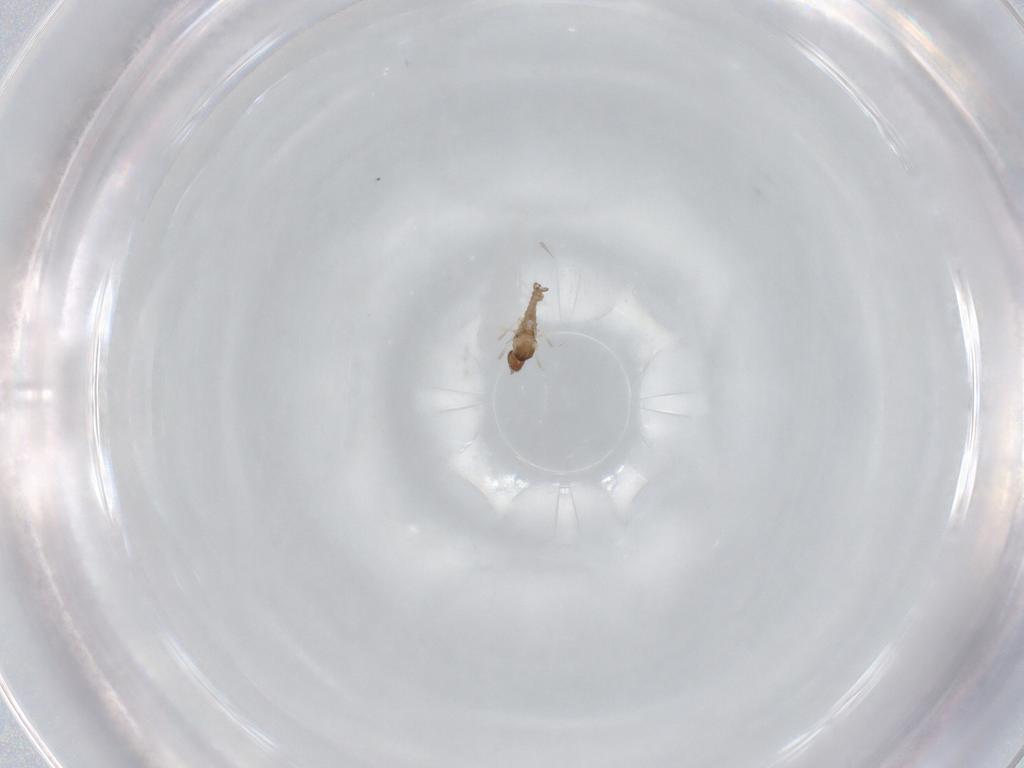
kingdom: Animalia
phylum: Arthropoda
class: Insecta
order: Diptera
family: Cecidomyiidae
